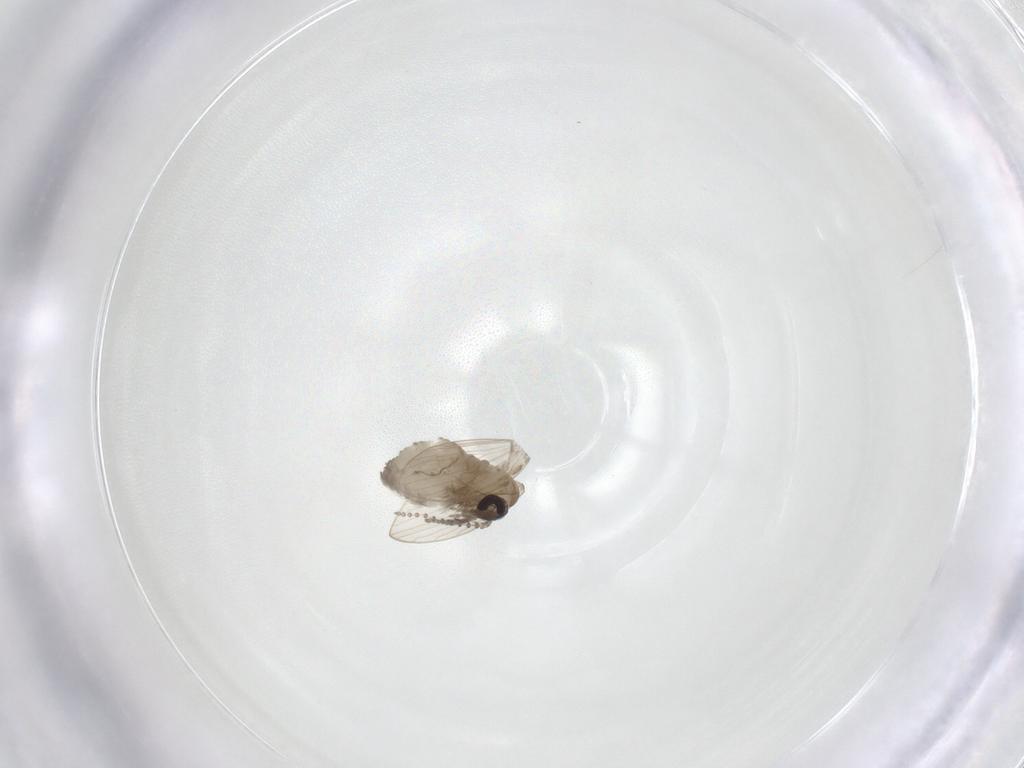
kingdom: Animalia
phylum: Arthropoda
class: Insecta
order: Diptera
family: Psychodidae
